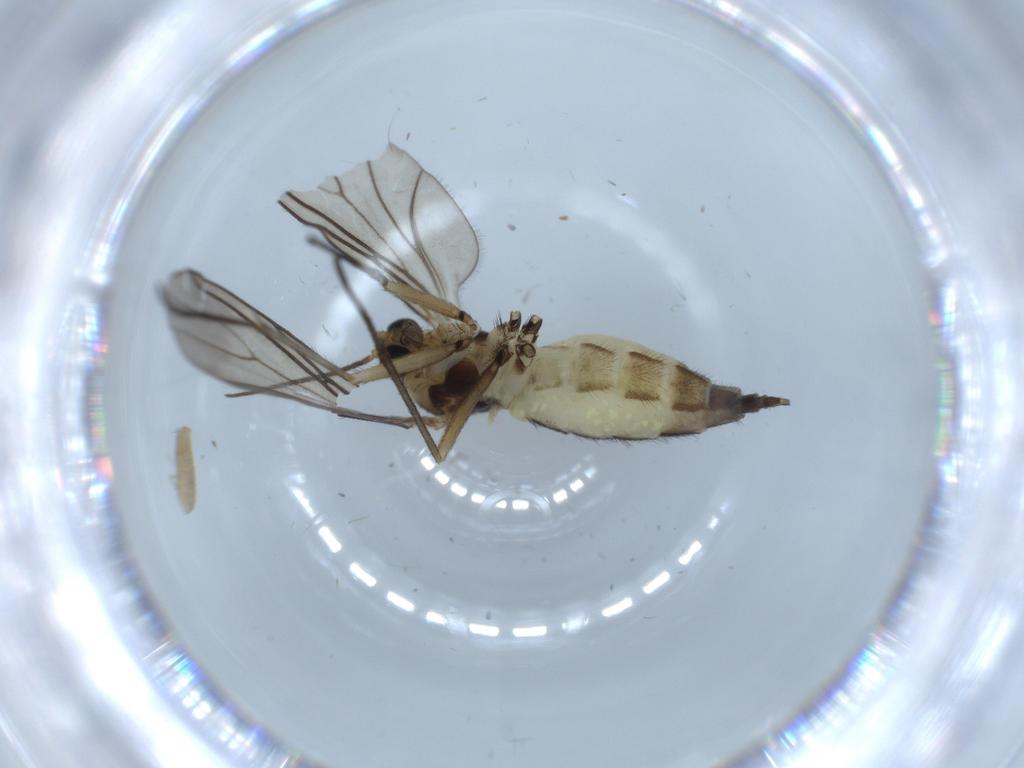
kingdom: Animalia
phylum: Arthropoda
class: Insecta
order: Diptera
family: Sciaridae
